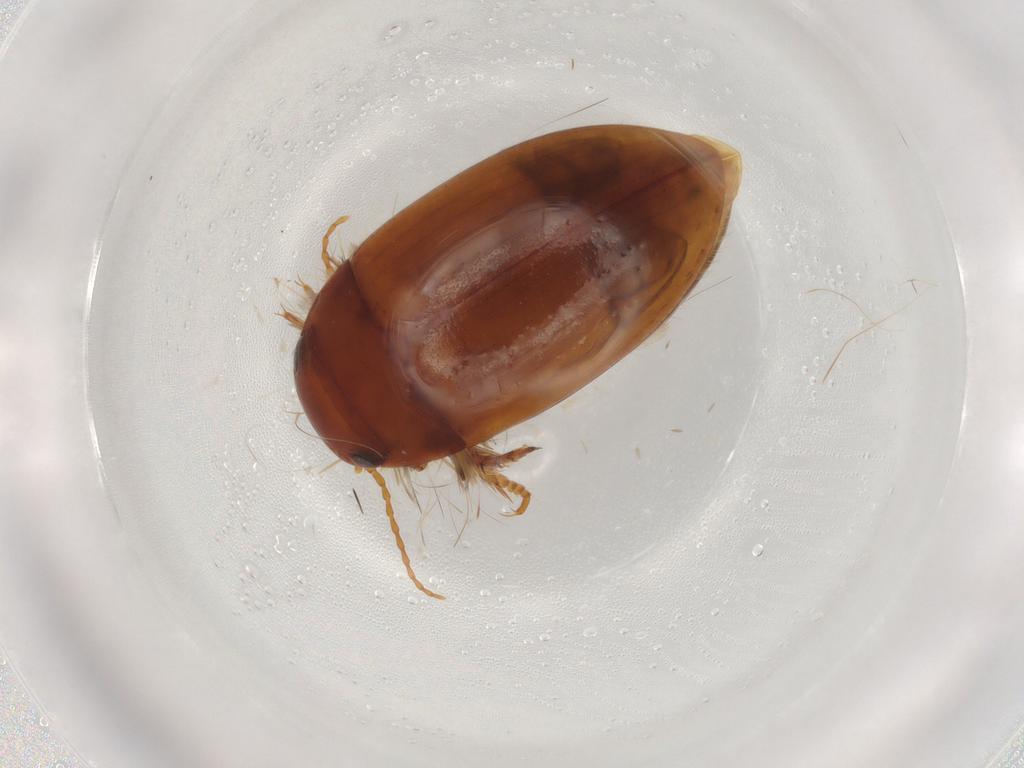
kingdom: Animalia
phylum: Arthropoda
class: Insecta
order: Coleoptera
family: Dytiscidae
